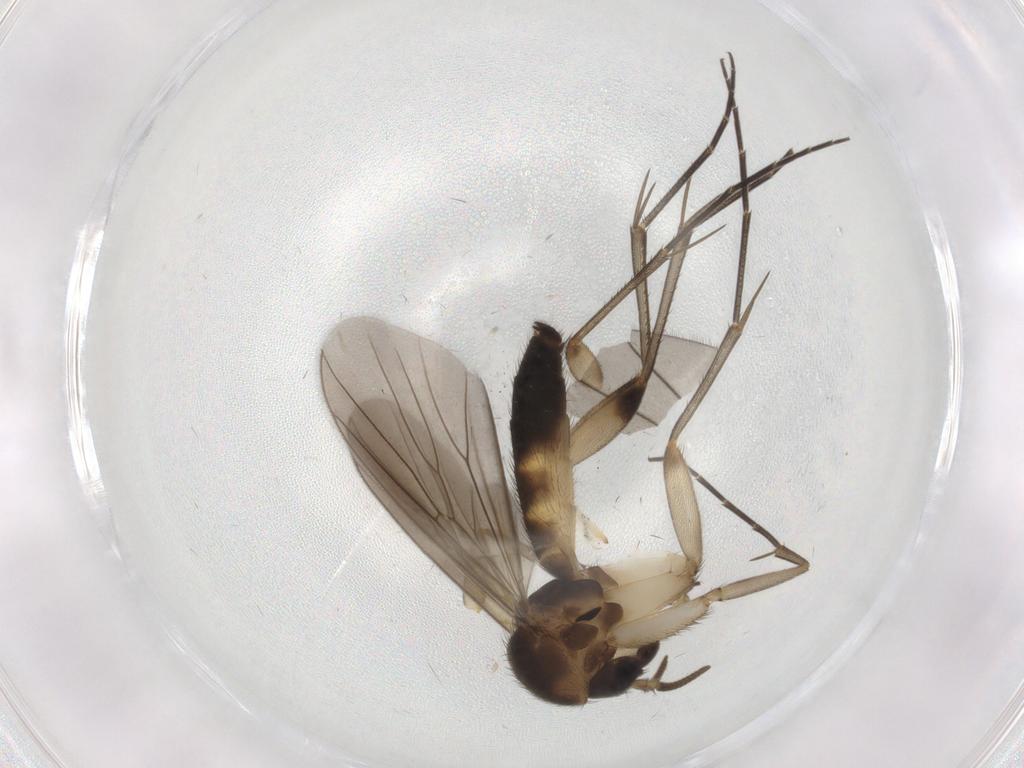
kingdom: Animalia
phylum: Arthropoda
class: Insecta
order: Diptera
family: Mycetophilidae
